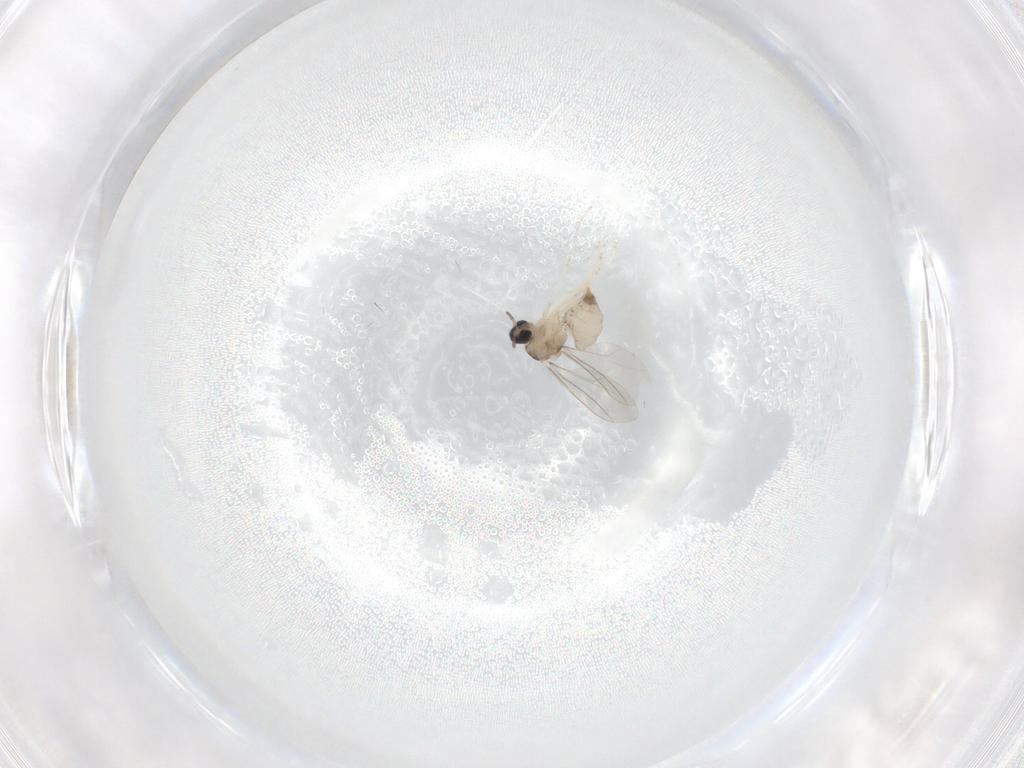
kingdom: Animalia
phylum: Arthropoda
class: Insecta
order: Diptera
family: Cecidomyiidae
